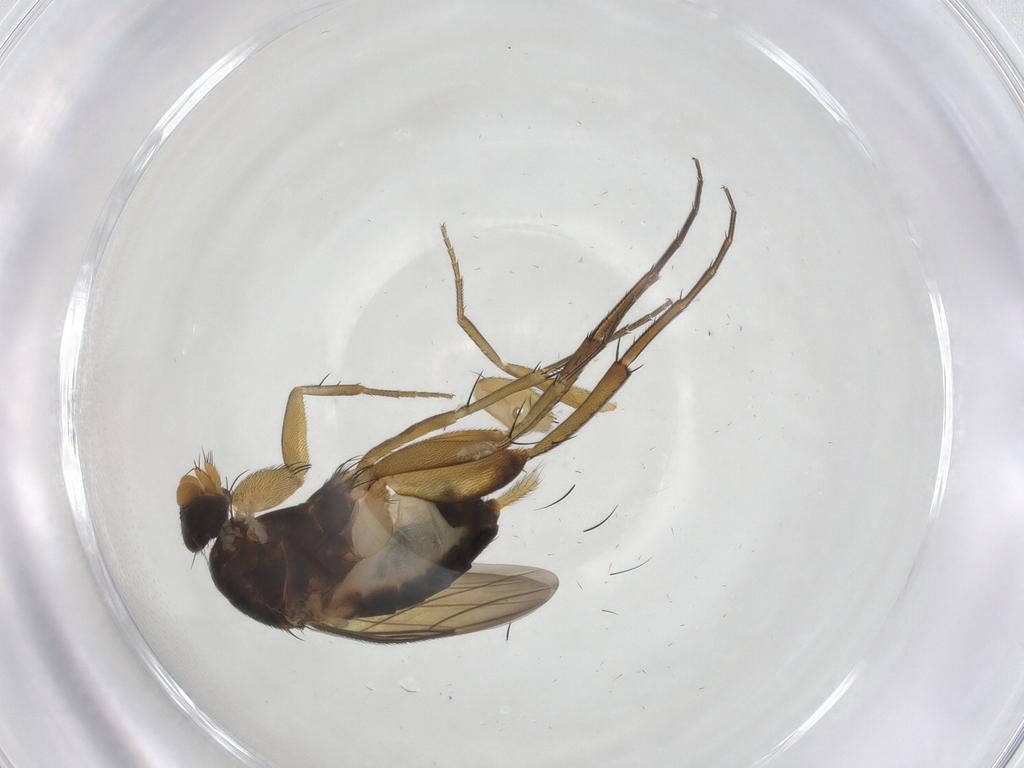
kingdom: Animalia
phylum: Arthropoda
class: Insecta
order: Diptera
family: Phoridae
